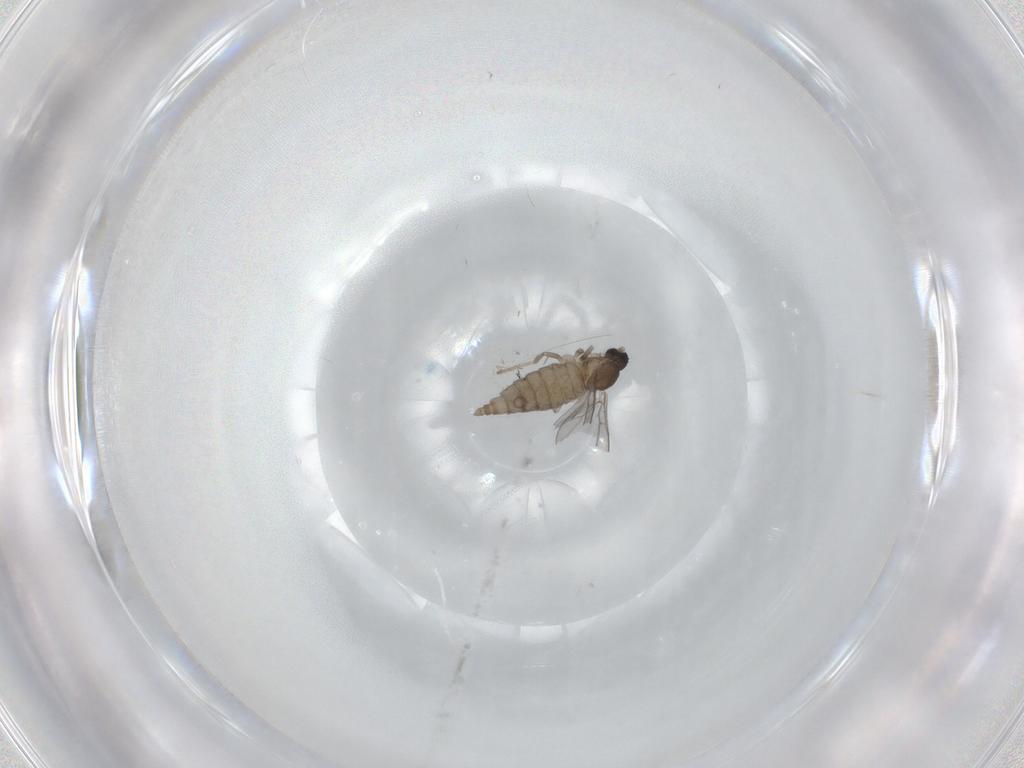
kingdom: Animalia
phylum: Arthropoda
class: Insecta
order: Diptera
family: Cecidomyiidae
